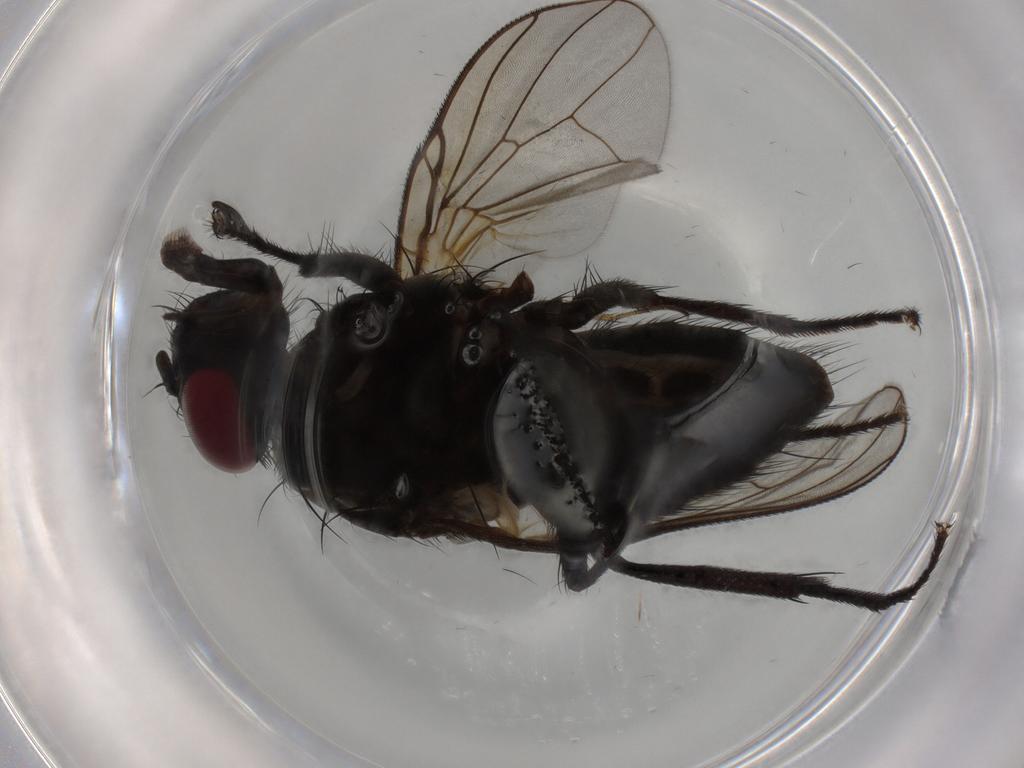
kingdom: Animalia
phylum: Arthropoda
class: Insecta
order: Diptera
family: Muscidae
